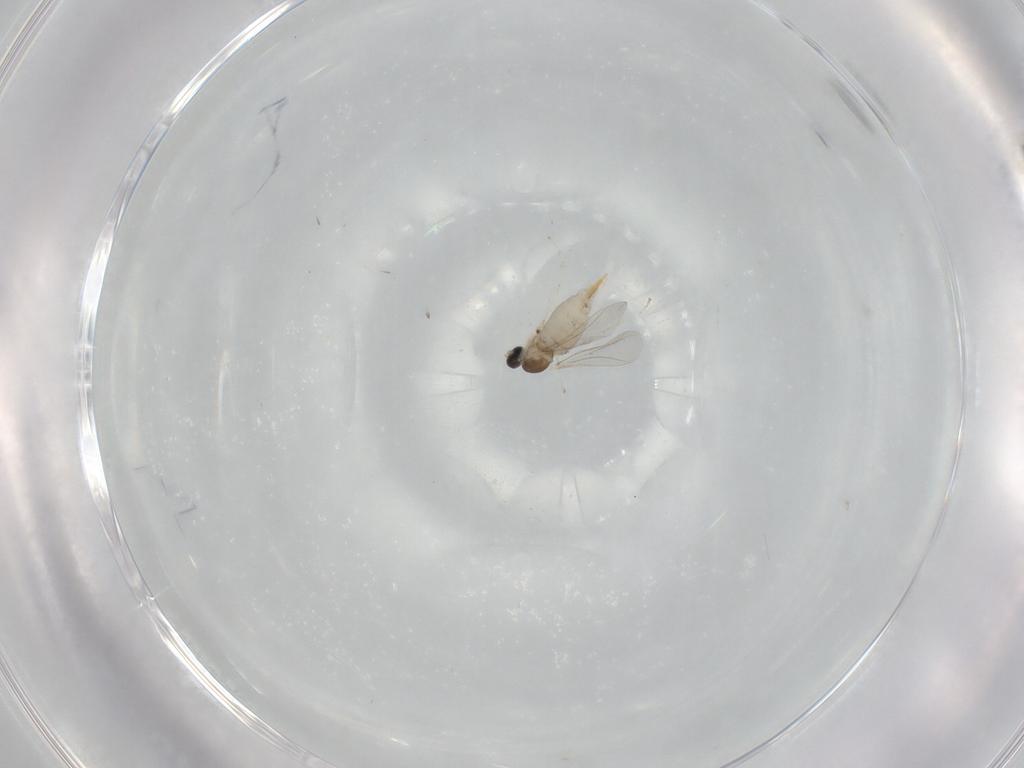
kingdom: Animalia
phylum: Arthropoda
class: Insecta
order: Diptera
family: Cecidomyiidae
